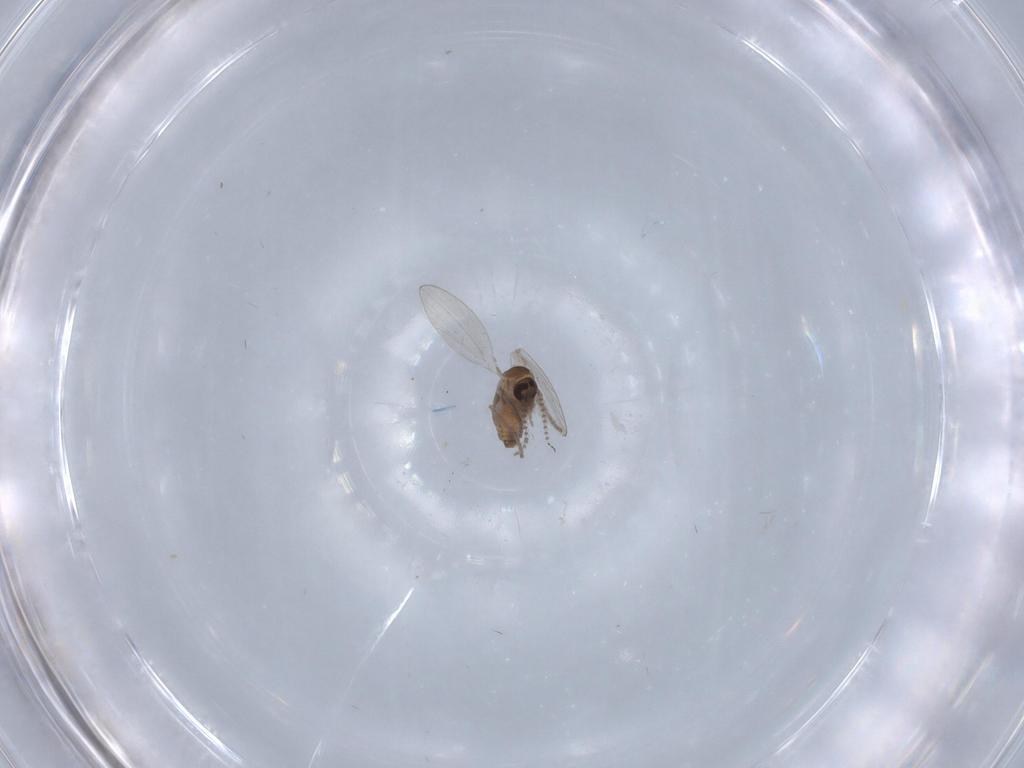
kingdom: Animalia
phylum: Arthropoda
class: Insecta
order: Diptera
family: Psychodidae
